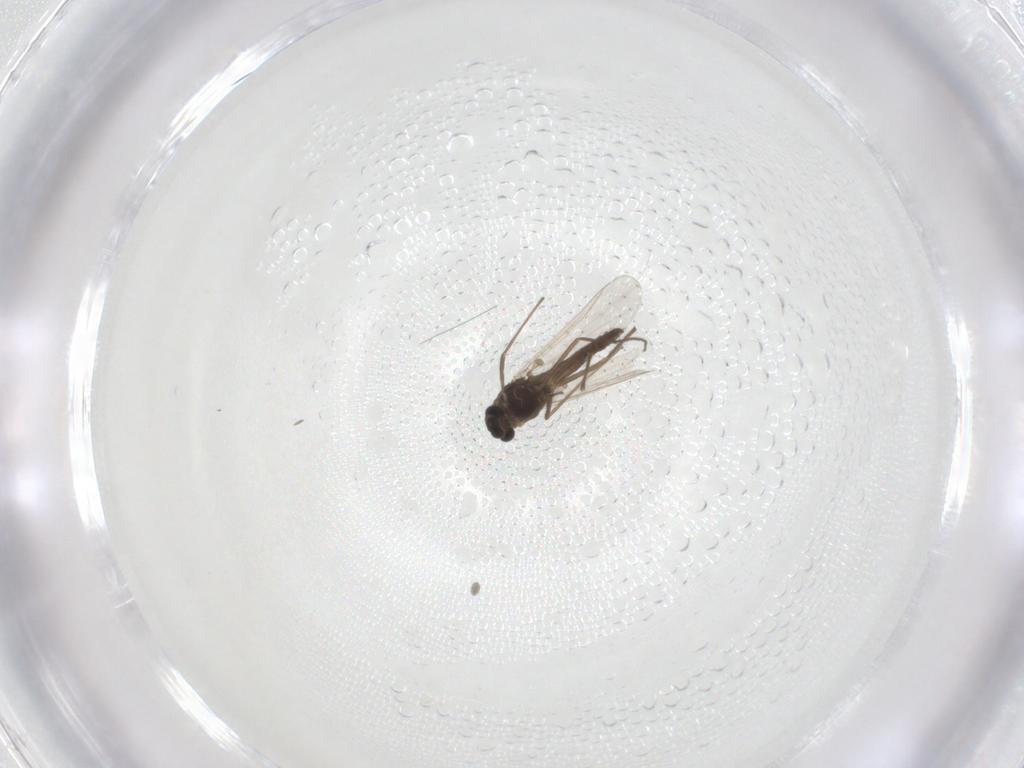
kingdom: Animalia
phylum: Arthropoda
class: Insecta
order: Diptera
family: Chironomidae
